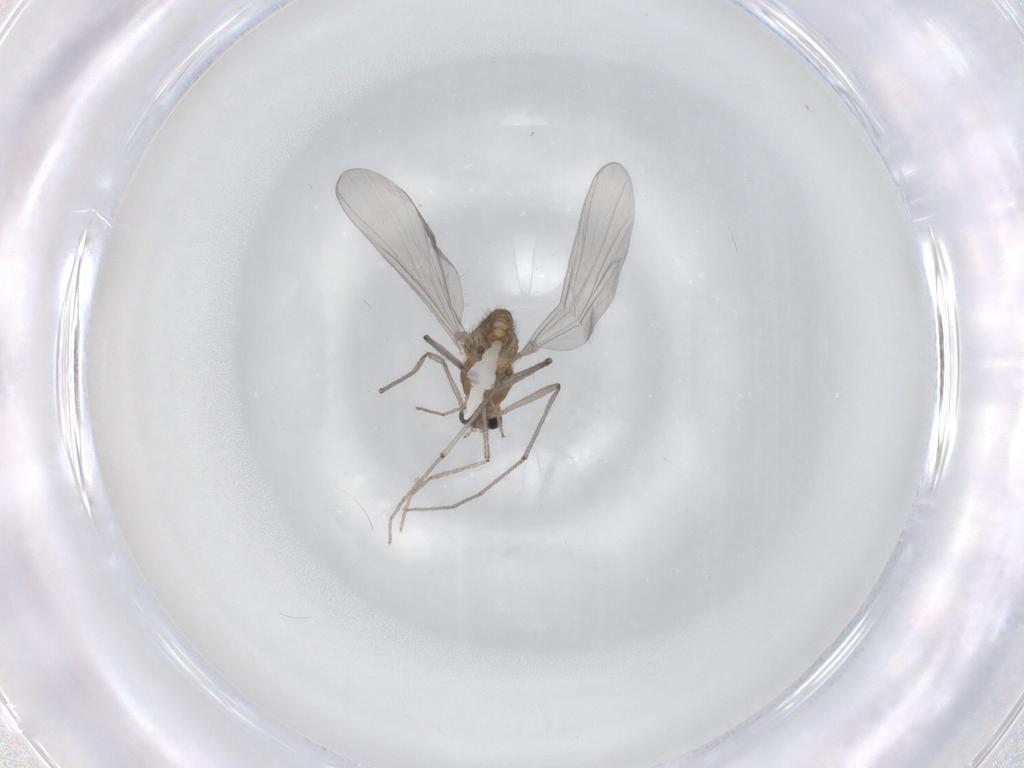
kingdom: Animalia
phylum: Arthropoda
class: Insecta
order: Diptera
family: Chironomidae
